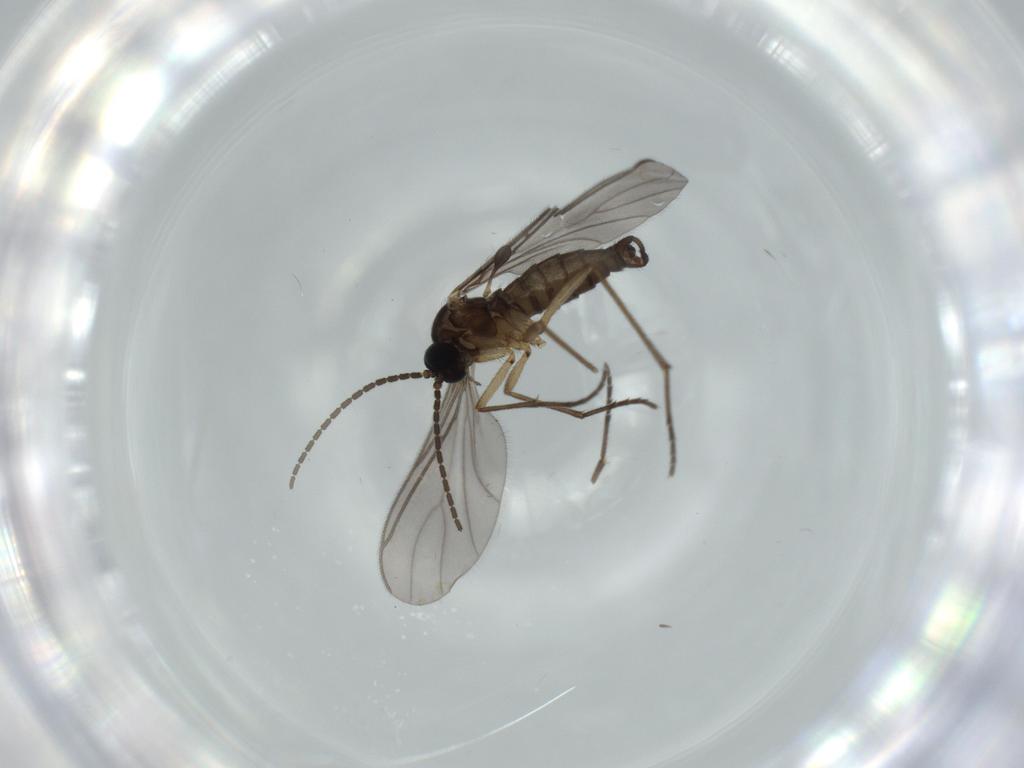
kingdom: Animalia
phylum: Arthropoda
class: Insecta
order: Diptera
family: Sciaridae
